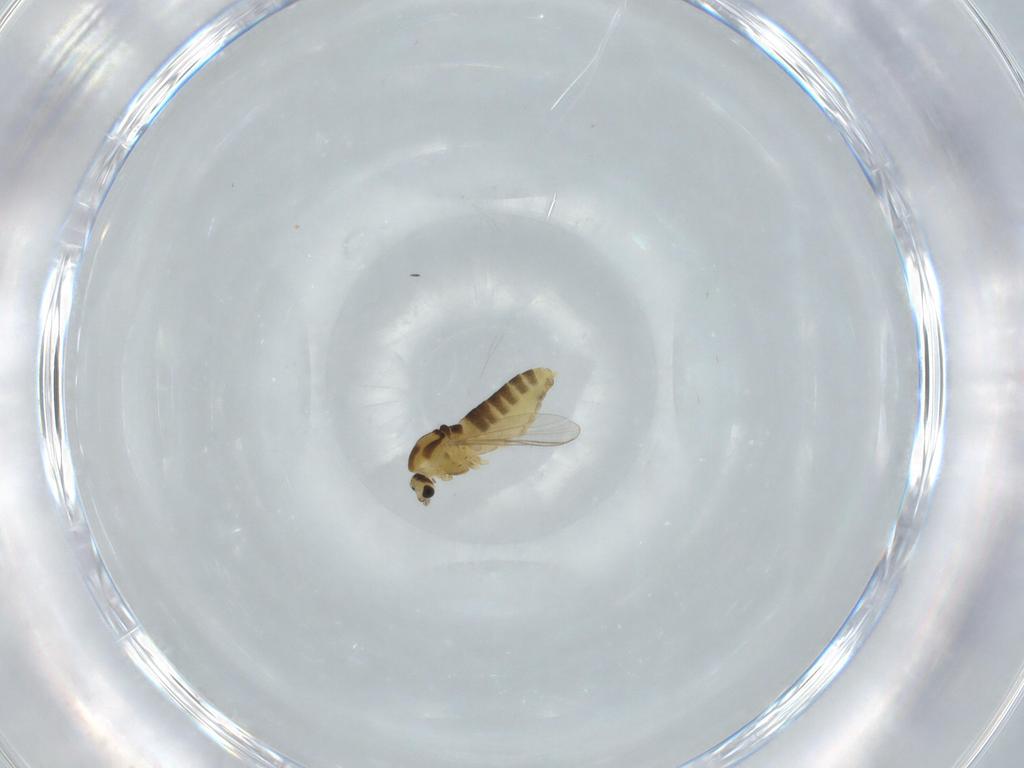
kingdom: Animalia
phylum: Arthropoda
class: Insecta
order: Diptera
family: Chironomidae
